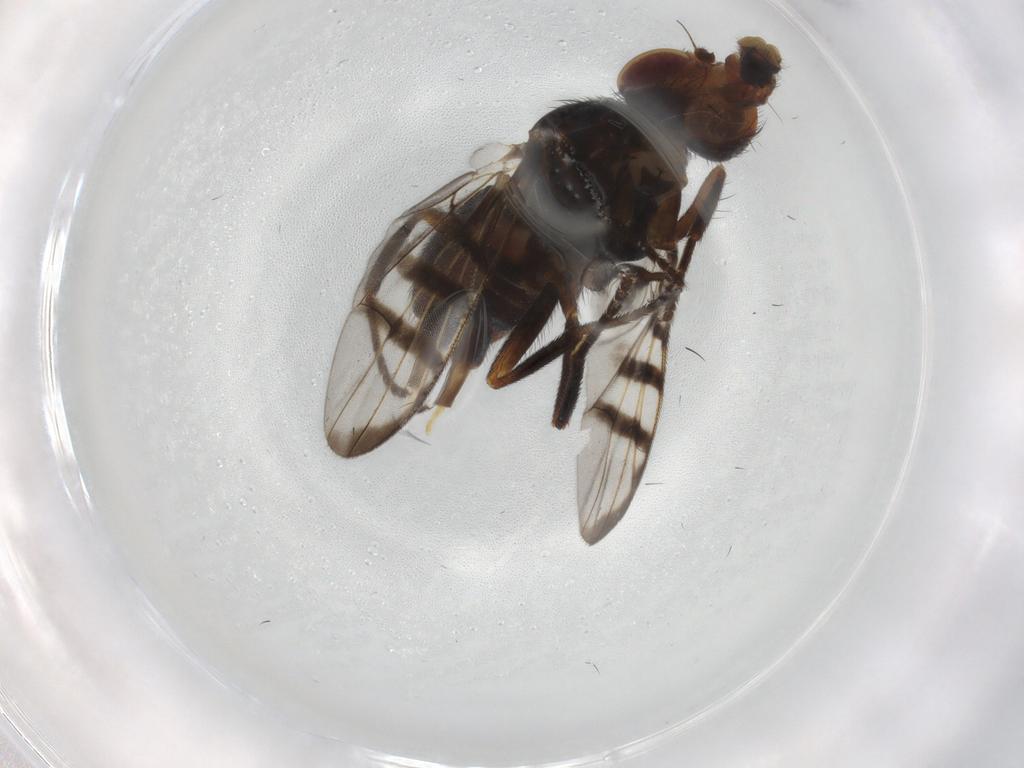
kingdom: Animalia
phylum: Arthropoda
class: Insecta
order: Diptera
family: Platystomatidae
